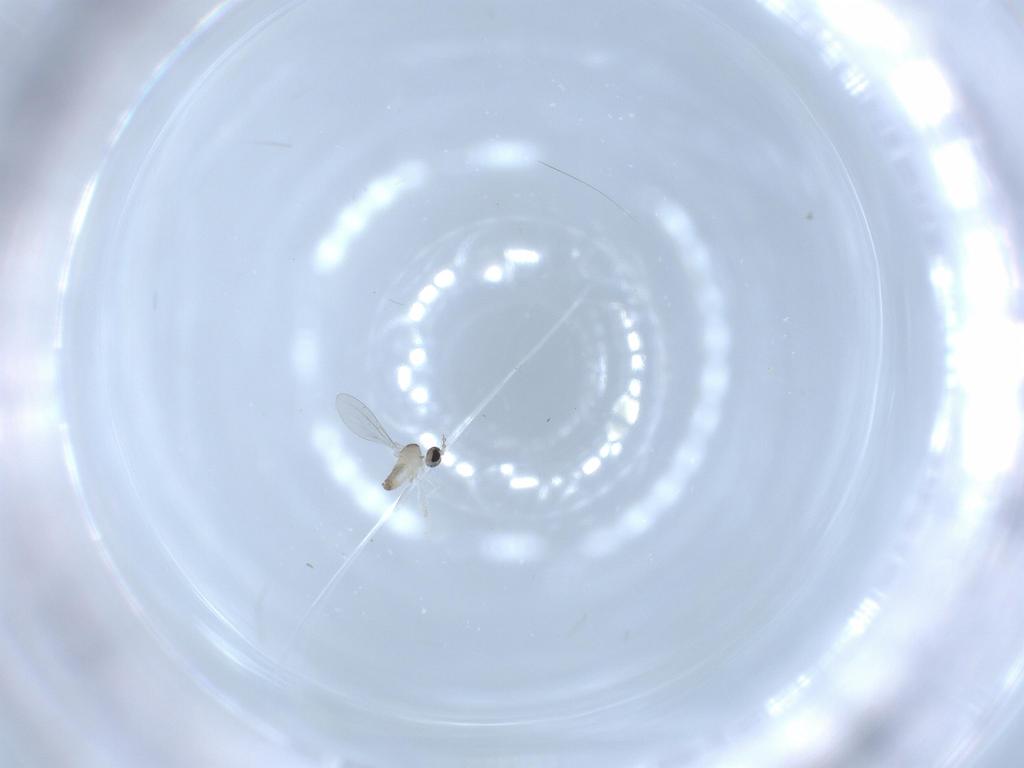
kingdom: Animalia
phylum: Arthropoda
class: Insecta
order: Diptera
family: Cecidomyiidae
